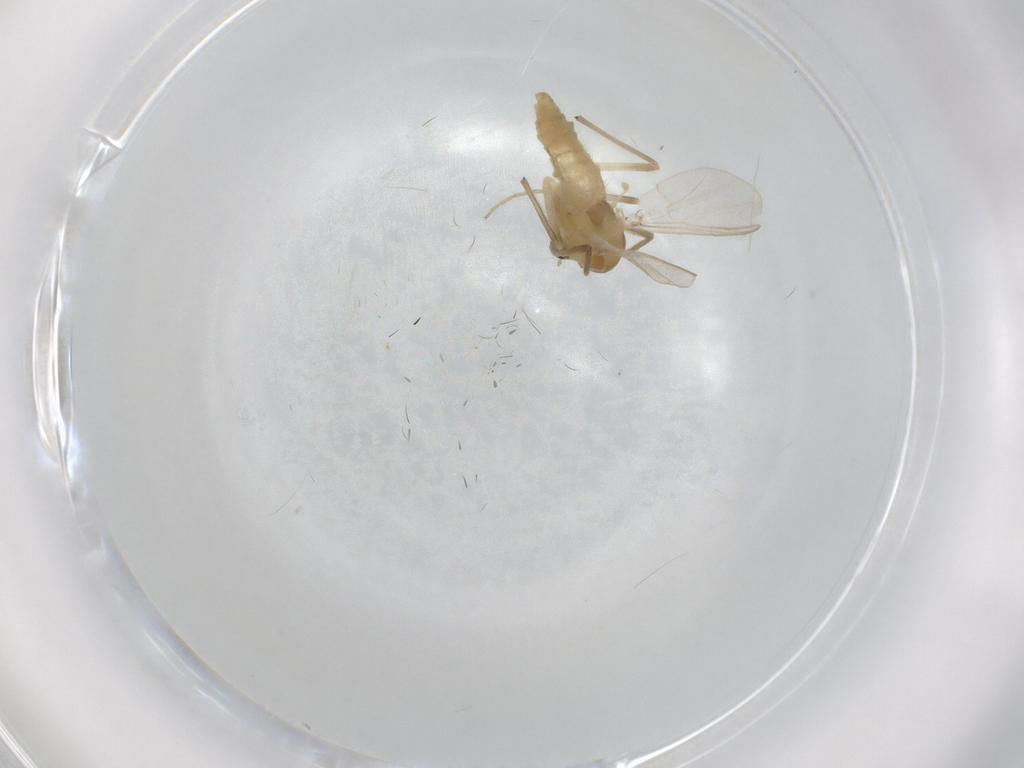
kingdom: Animalia
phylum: Arthropoda
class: Insecta
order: Diptera
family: Chironomidae
